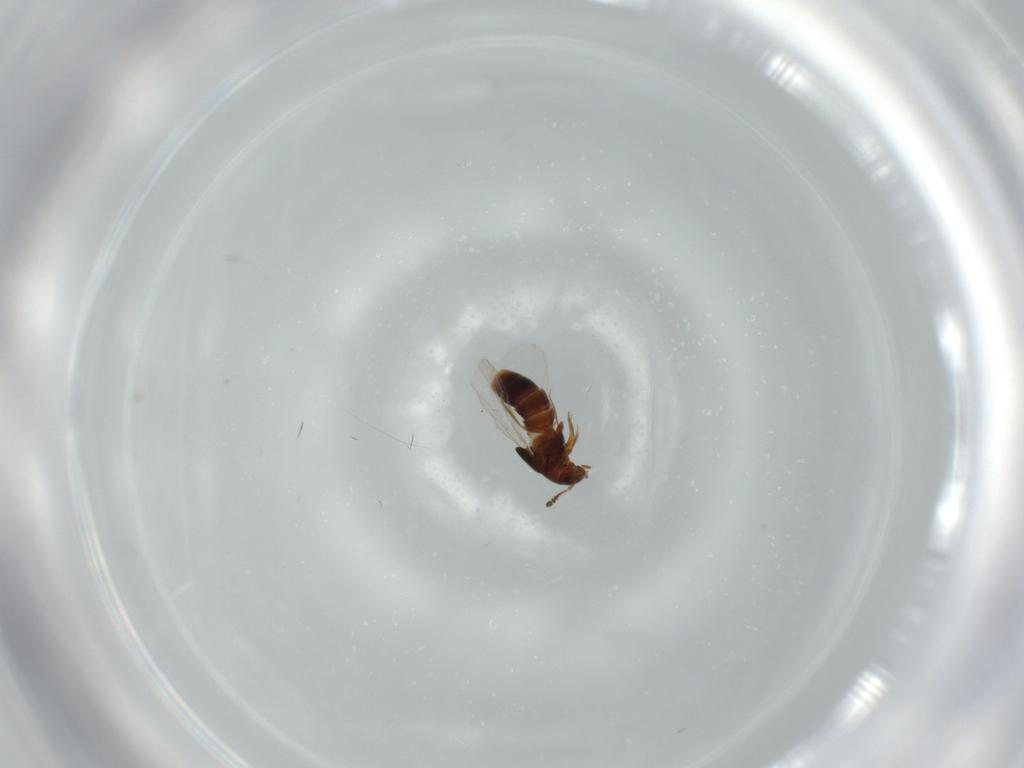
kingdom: Animalia
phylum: Arthropoda
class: Insecta
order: Coleoptera
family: Staphylinidae
